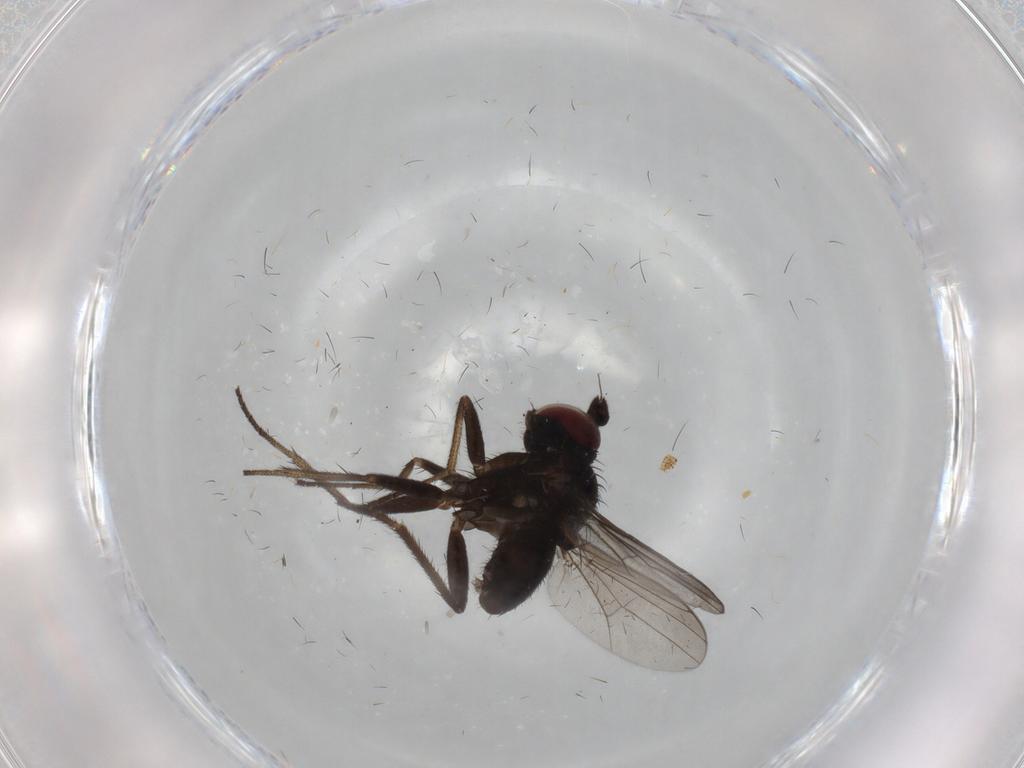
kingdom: Animalia
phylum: Arthropoda
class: Insecta
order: Diptera
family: Dolichopodidae
